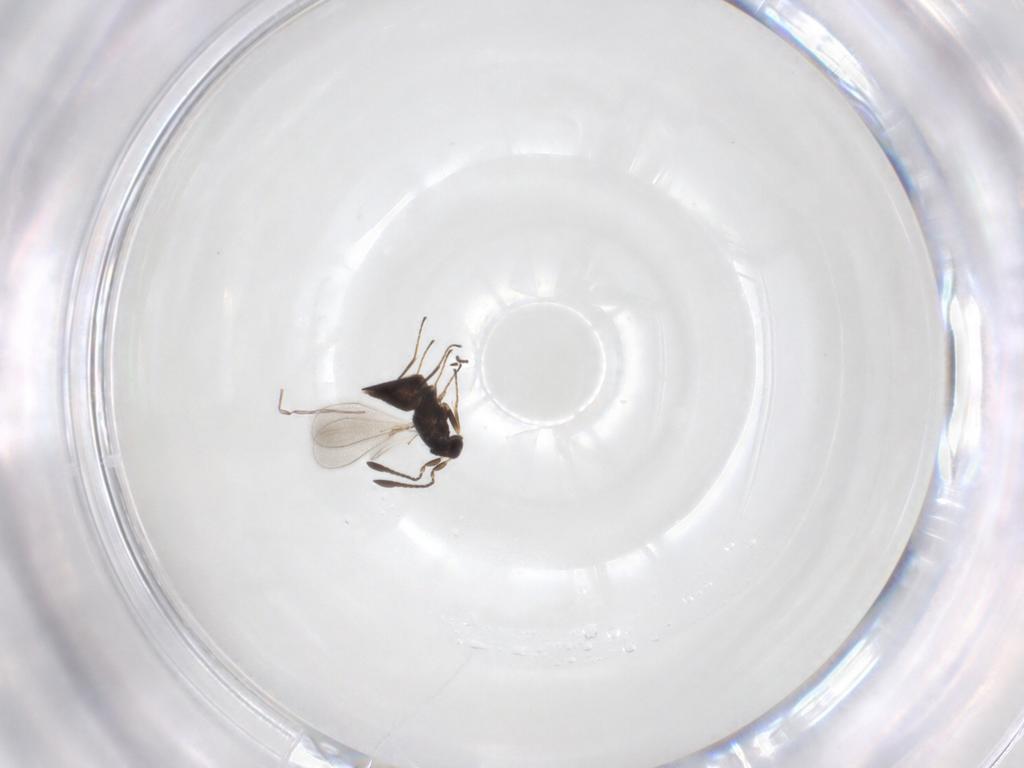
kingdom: Animalia
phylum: Arthropoda
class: Insecta
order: Hymenoptera
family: Mymaridae
